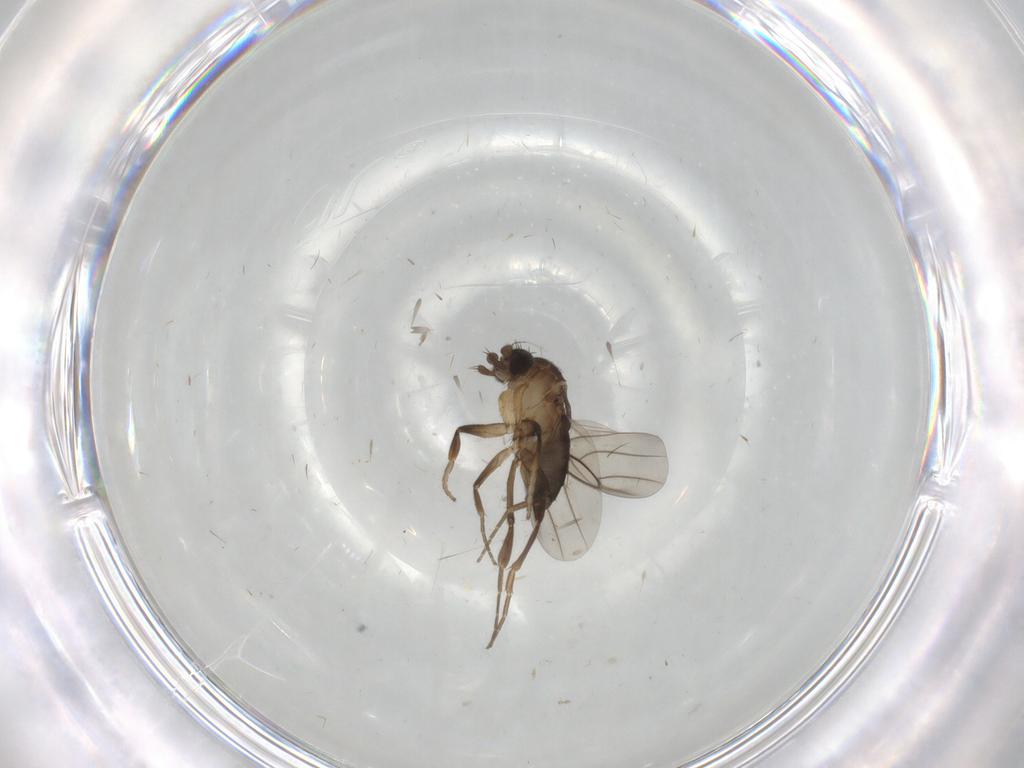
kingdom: Animalia
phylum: Arthropoda
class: Insecta
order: Diptera
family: Phoridae
